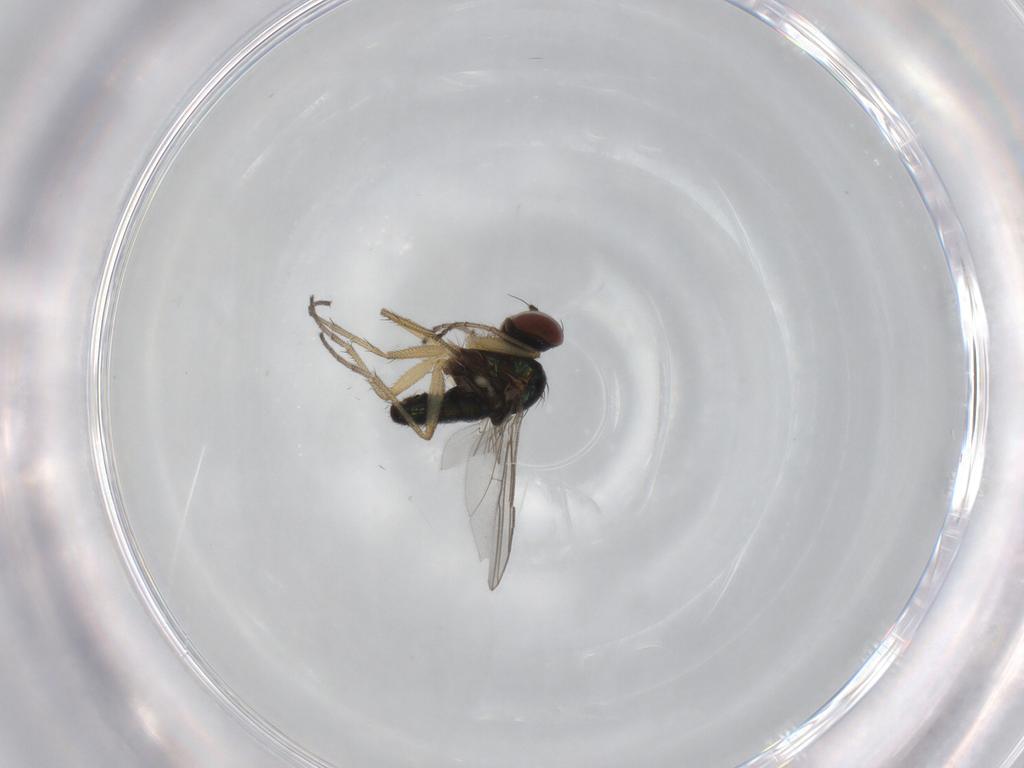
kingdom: Animalia
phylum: Arthropoda
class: Insecta
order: Diptera
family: Dolichopodidae
